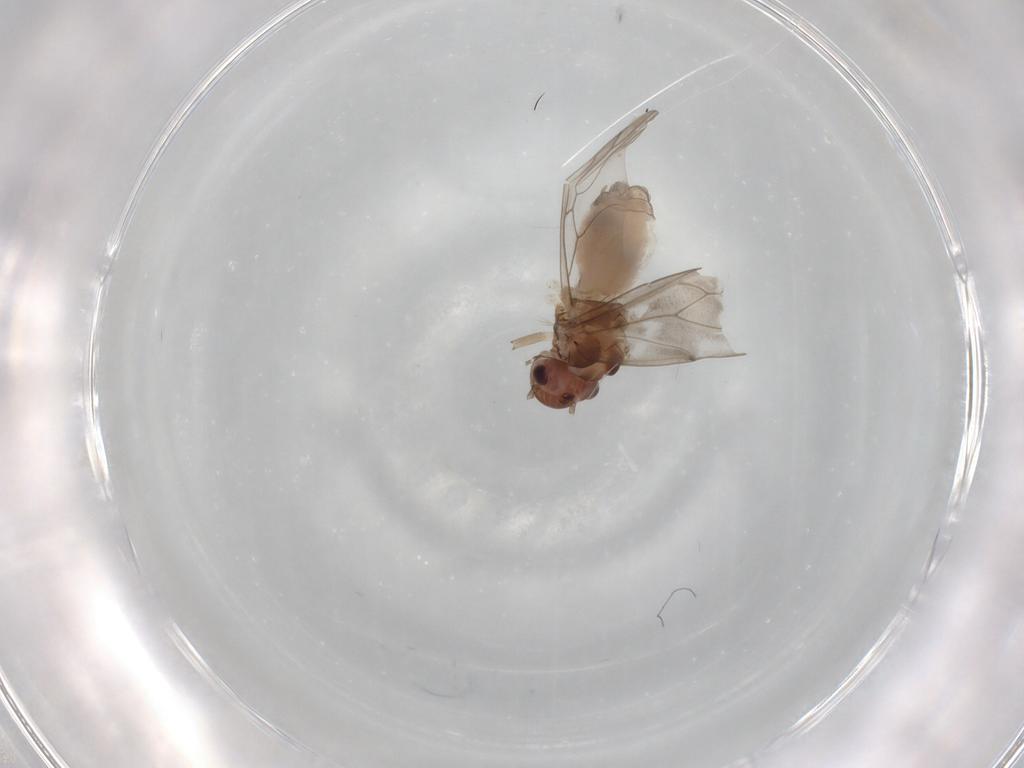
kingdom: Animalia
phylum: Arthropoda
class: Insecta
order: Psocodea
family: Peripsocidae
